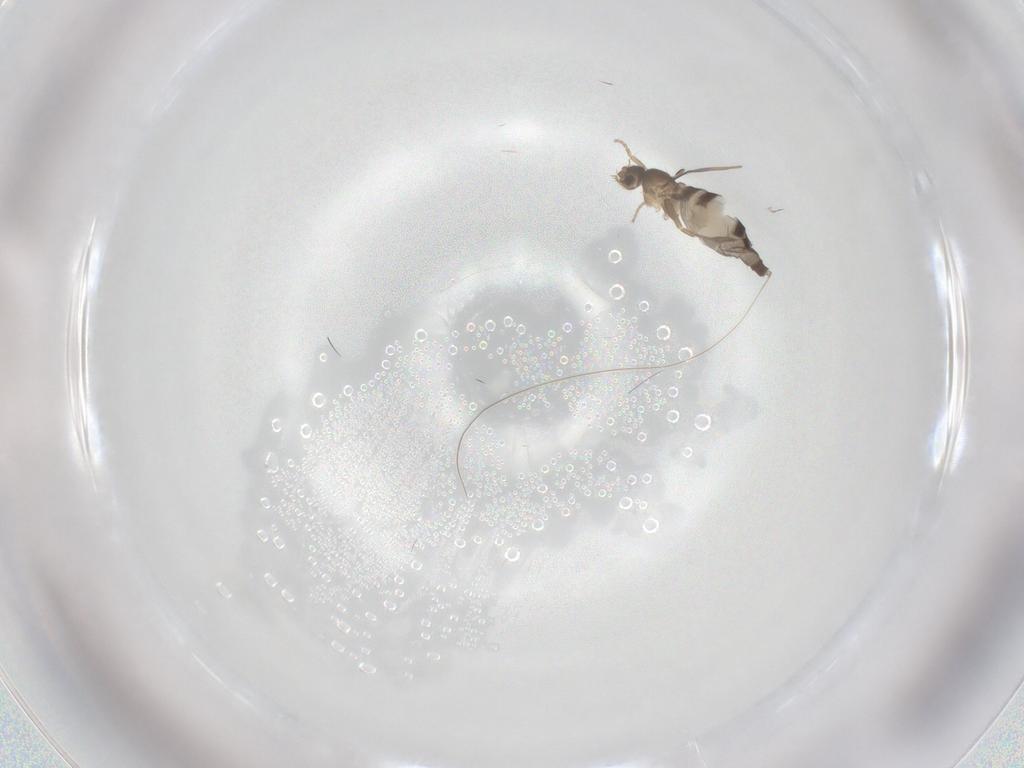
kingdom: Animalia
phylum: Arthropoda
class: Insecta
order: Diptera
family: Phoridae
